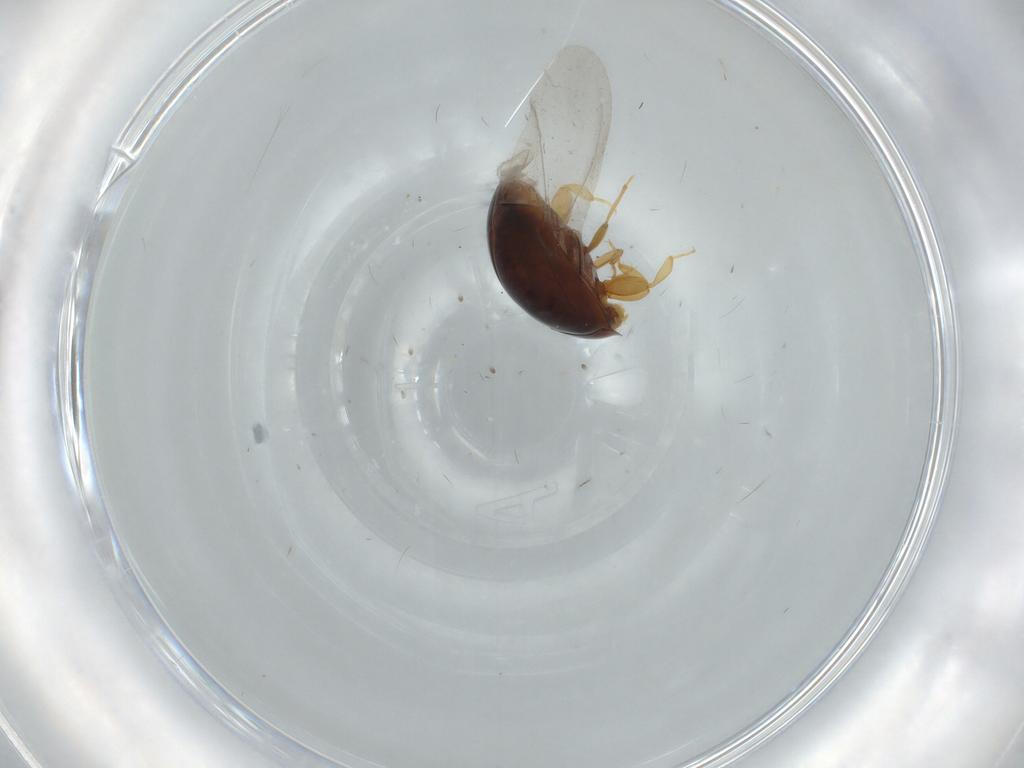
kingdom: Animalia
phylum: Arthropoda
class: Insecta
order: Coleoptera
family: Corylophidae
